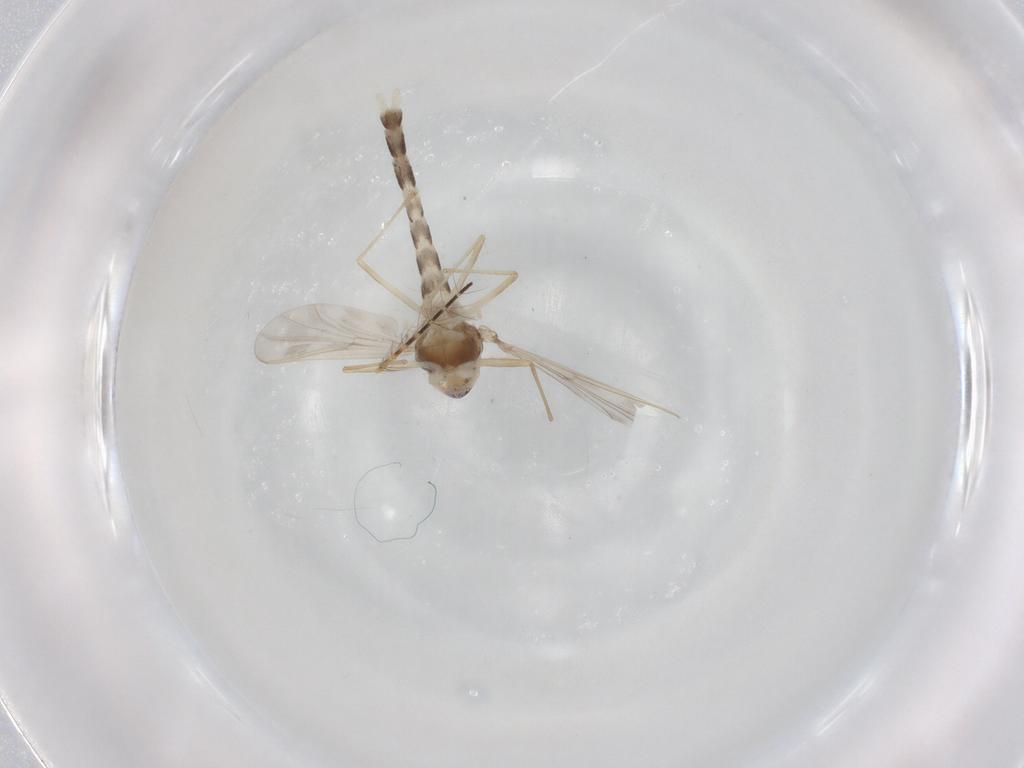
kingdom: Animalia
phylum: Arthropoda
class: Insecta
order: Diptera
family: Chironomidae
